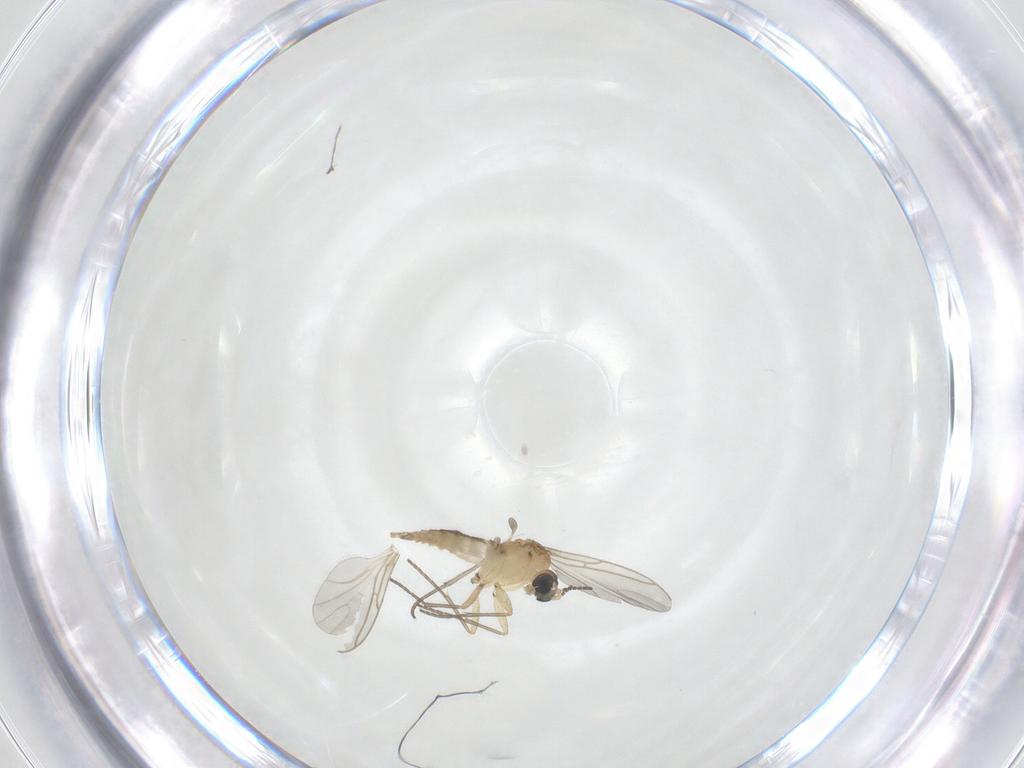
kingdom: Animalia
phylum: Arthropoda
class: Insecta
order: Diptera
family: Sciaridae
